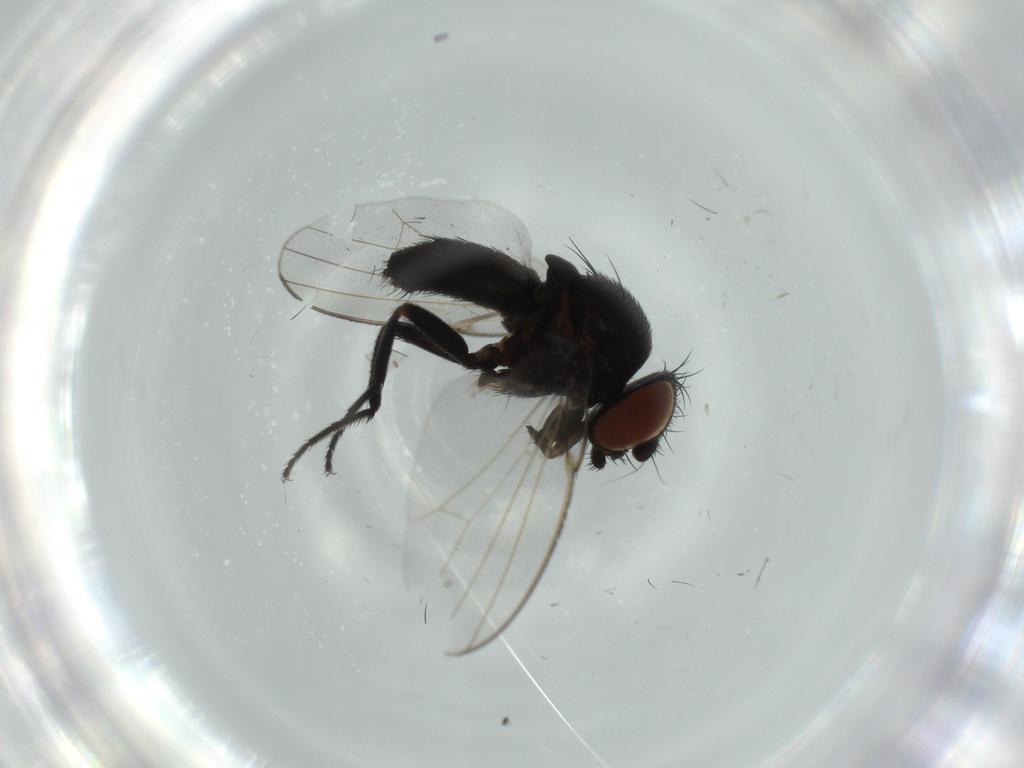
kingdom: Animalia
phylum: Arthropoda
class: Insecta
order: Diptera
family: Milichiidae
